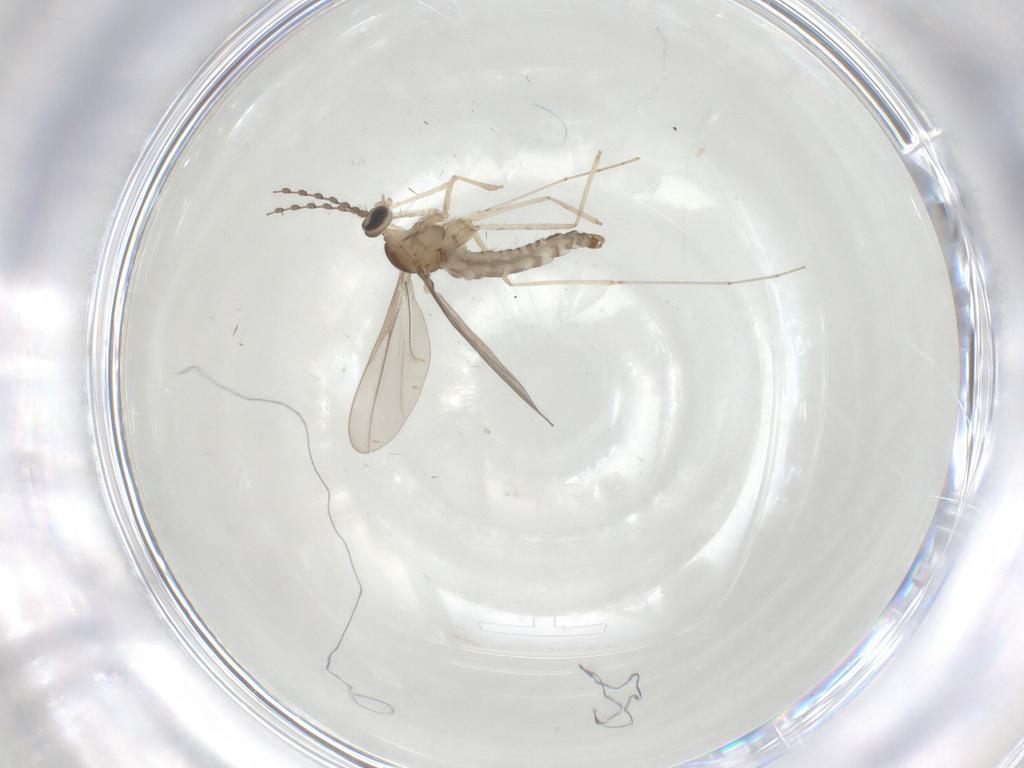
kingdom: Animalia
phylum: Arthropoda
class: Insecta
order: Diptera
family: Cecidomyiidae
